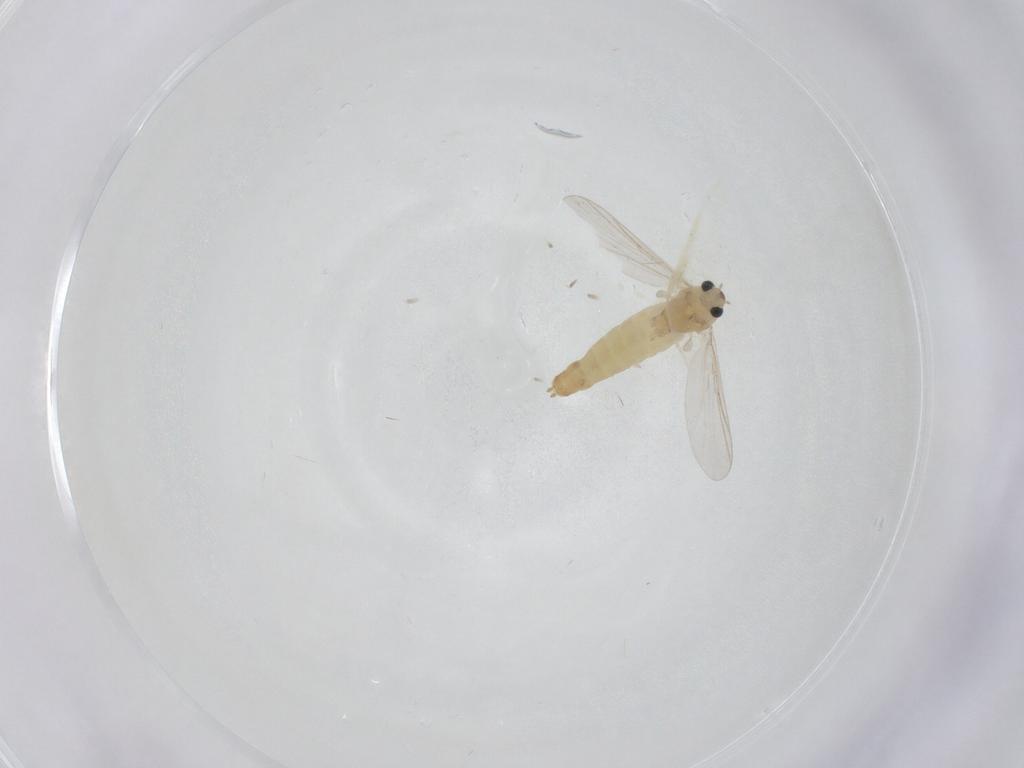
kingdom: Animalia
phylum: Arthropoda
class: Insecta
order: Diptera
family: Chironomidae
